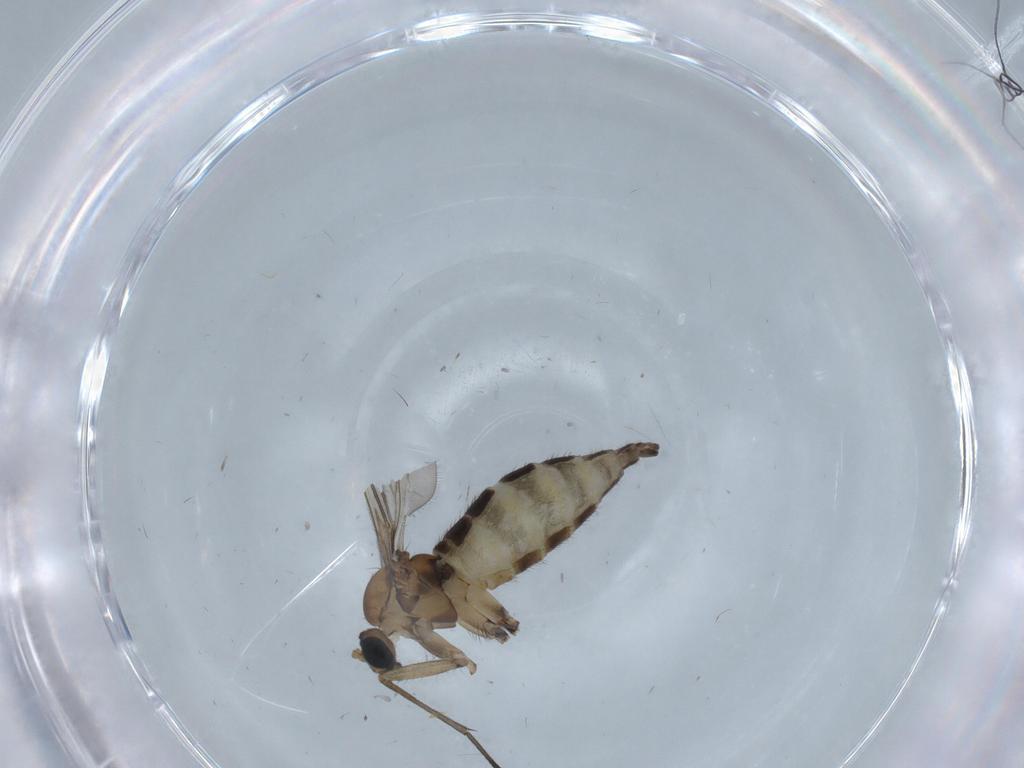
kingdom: Animalia
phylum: Arthropoda
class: Insecta
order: Diptera
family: Sciaridae
